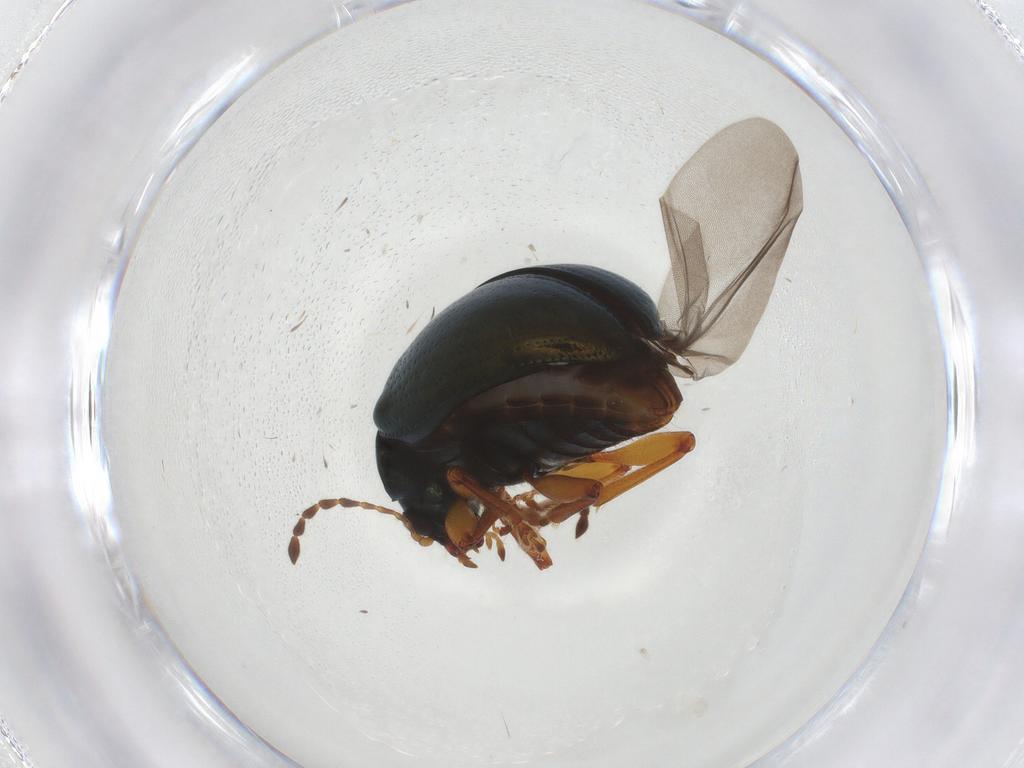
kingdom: Animalia
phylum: Arthropoda
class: Insecta
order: Coleoptera
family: Chrysomelidae
